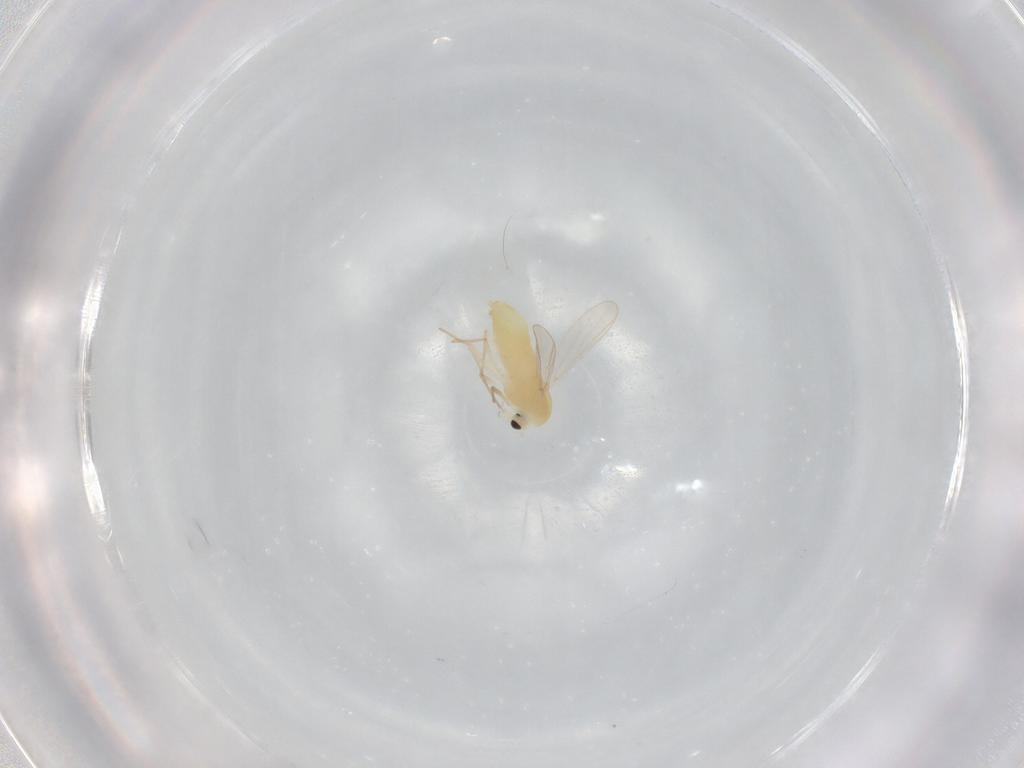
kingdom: Animalia
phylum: Arthropoda
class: Insecta
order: Diptera
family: Chironomidae
